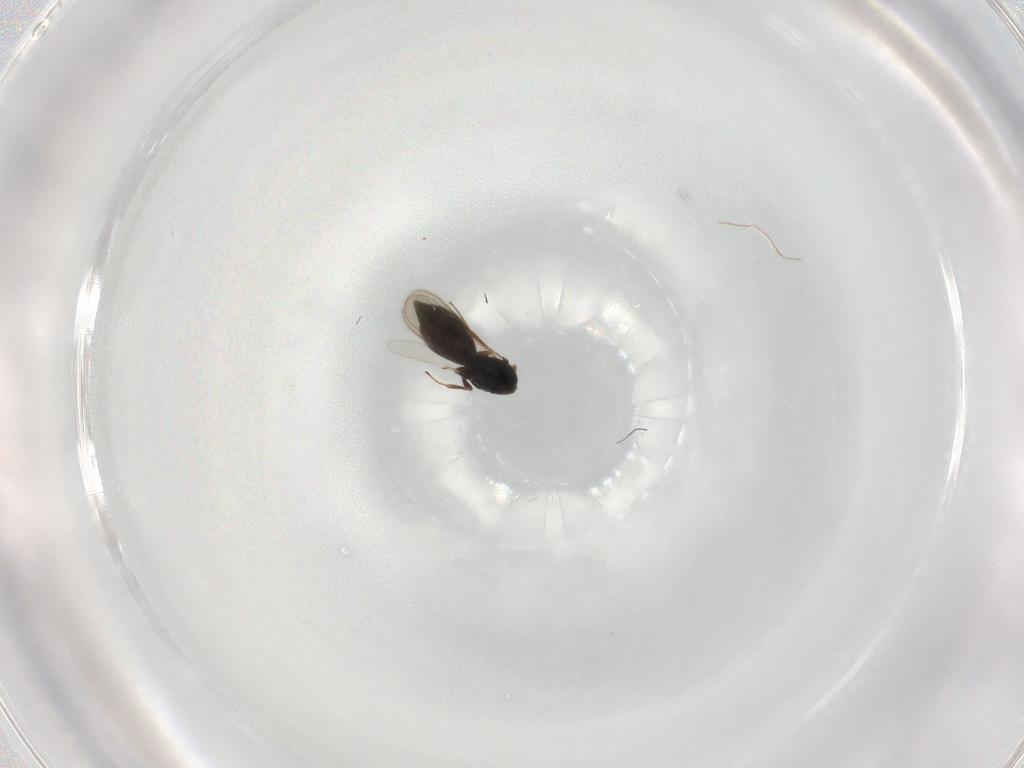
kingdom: Animalia
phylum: Arthropoda
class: Insecta
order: Hymenoptera
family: Scelionidae
